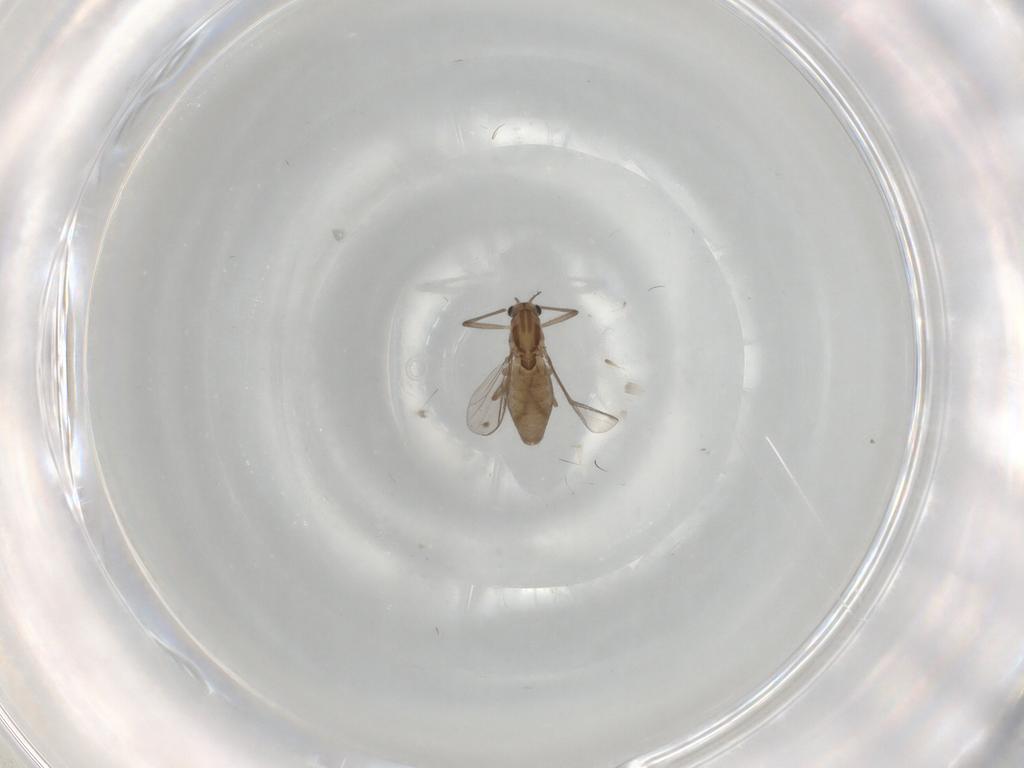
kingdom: Animalia
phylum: Arthropoda
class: Insecta
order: Diptera
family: Chironomidae
